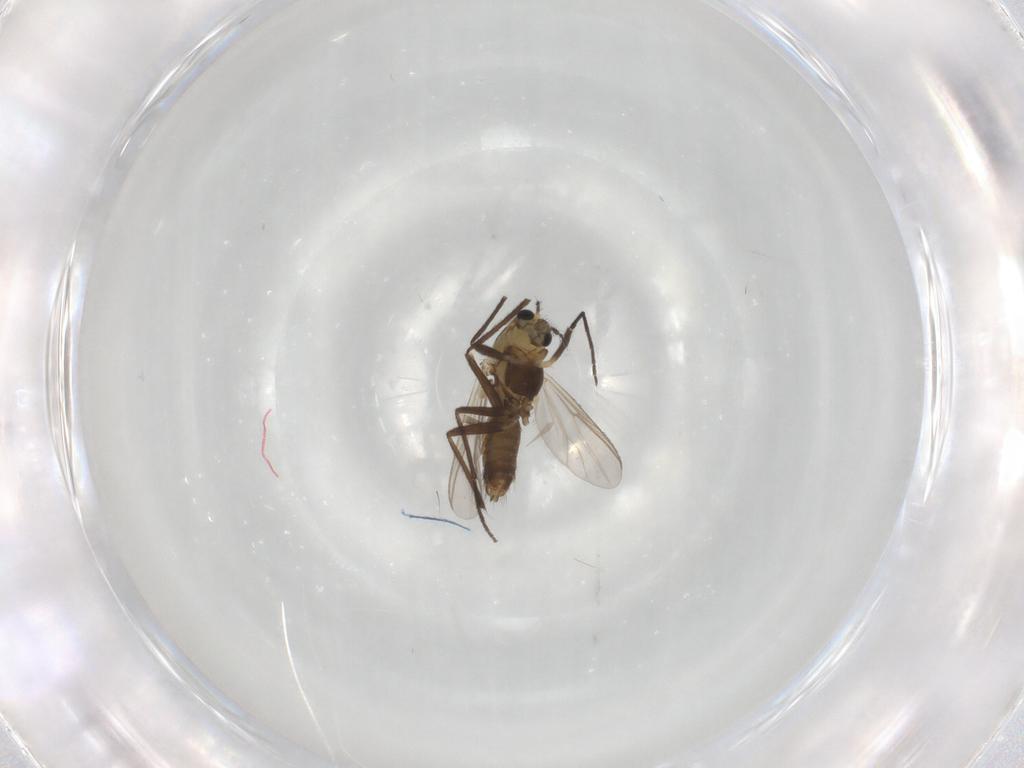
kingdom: Animalia
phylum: Arthropoda
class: Insecta
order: Diptera
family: Chironomidae
